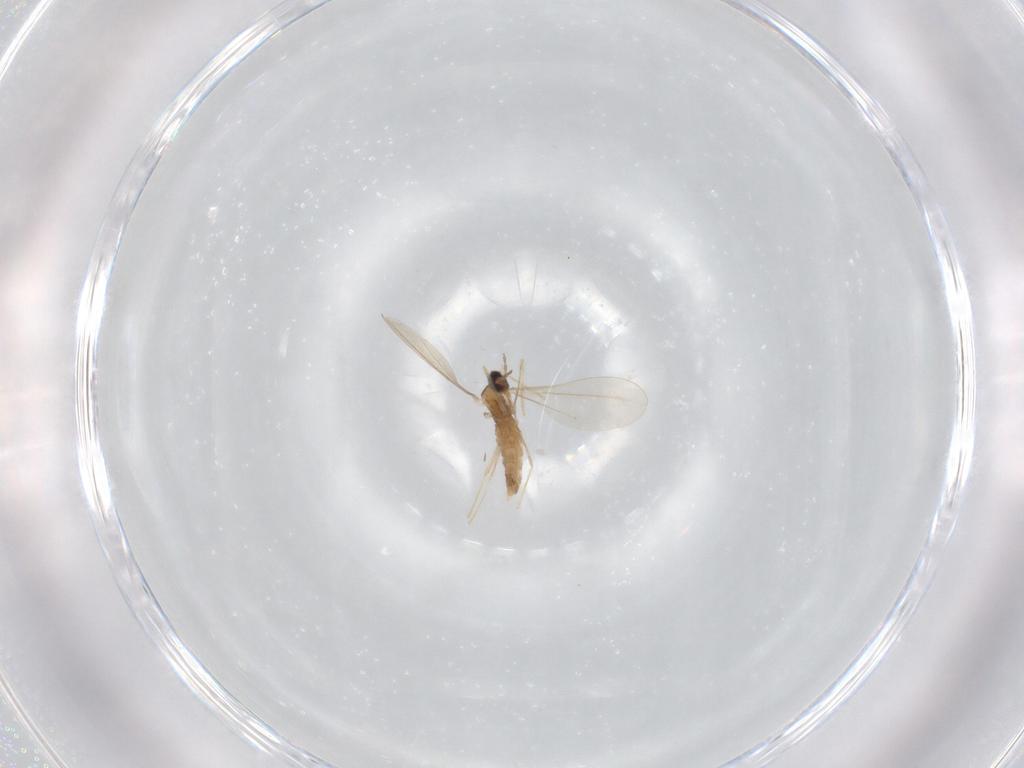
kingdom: Animalia
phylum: Arthropoda
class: Insecta
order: Diptera
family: Cecidomyiidae
